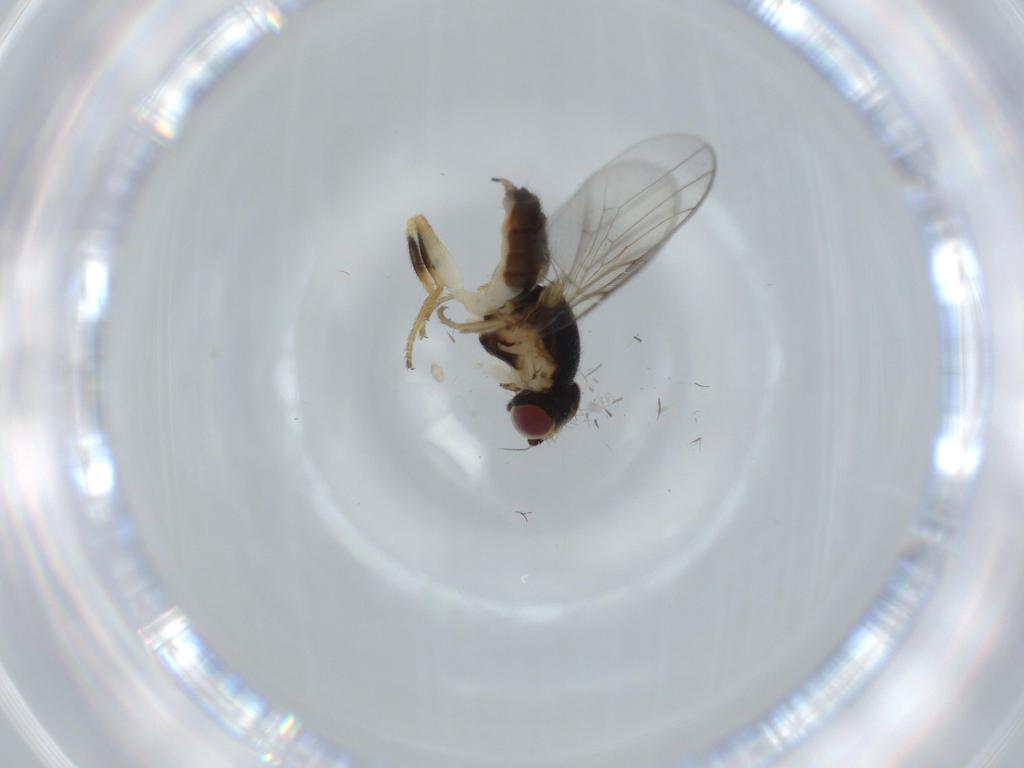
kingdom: Animalia
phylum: Arthropoda
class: Insecta
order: Diptera
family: Chloropidae
